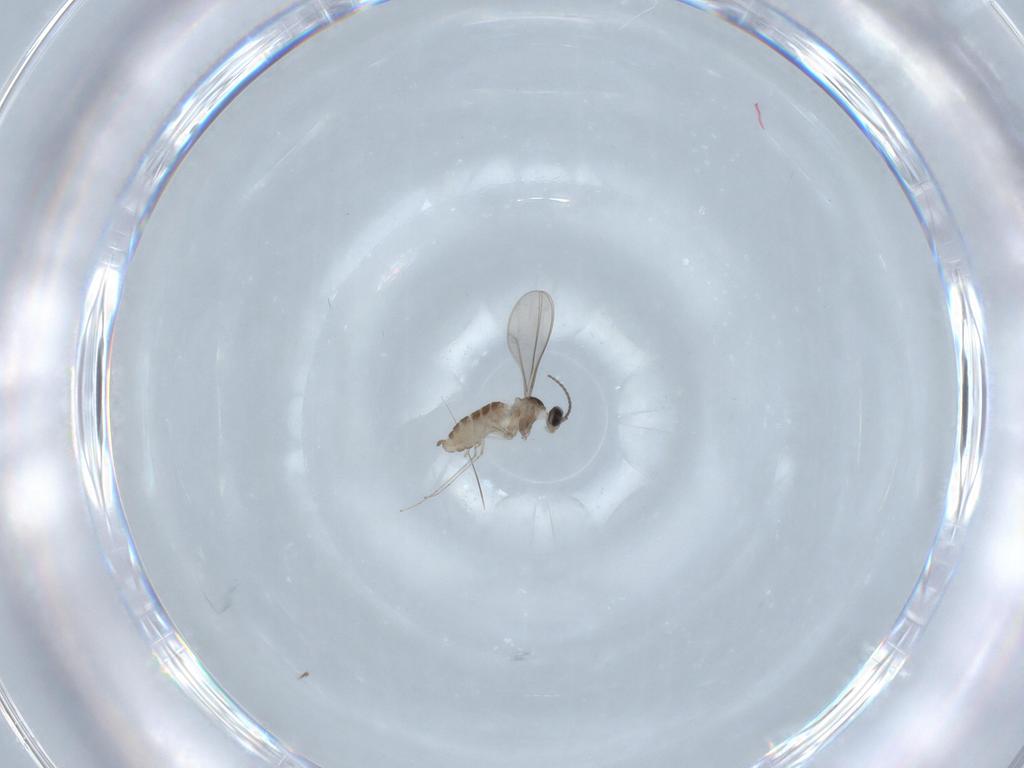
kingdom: Animalia
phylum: Arthropoda
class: Insecta
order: Diptera
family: Cecidomyiidae
